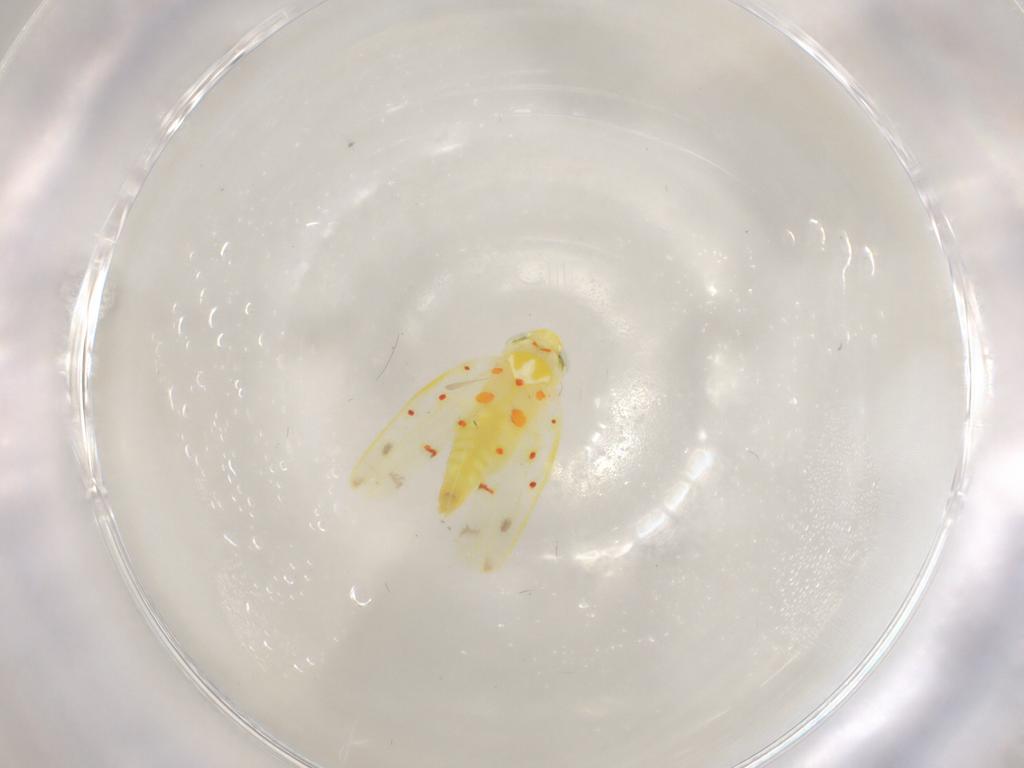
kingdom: Animalia
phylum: Arthropoda
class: Insecta
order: Hemiptera
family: Cicadellidae
